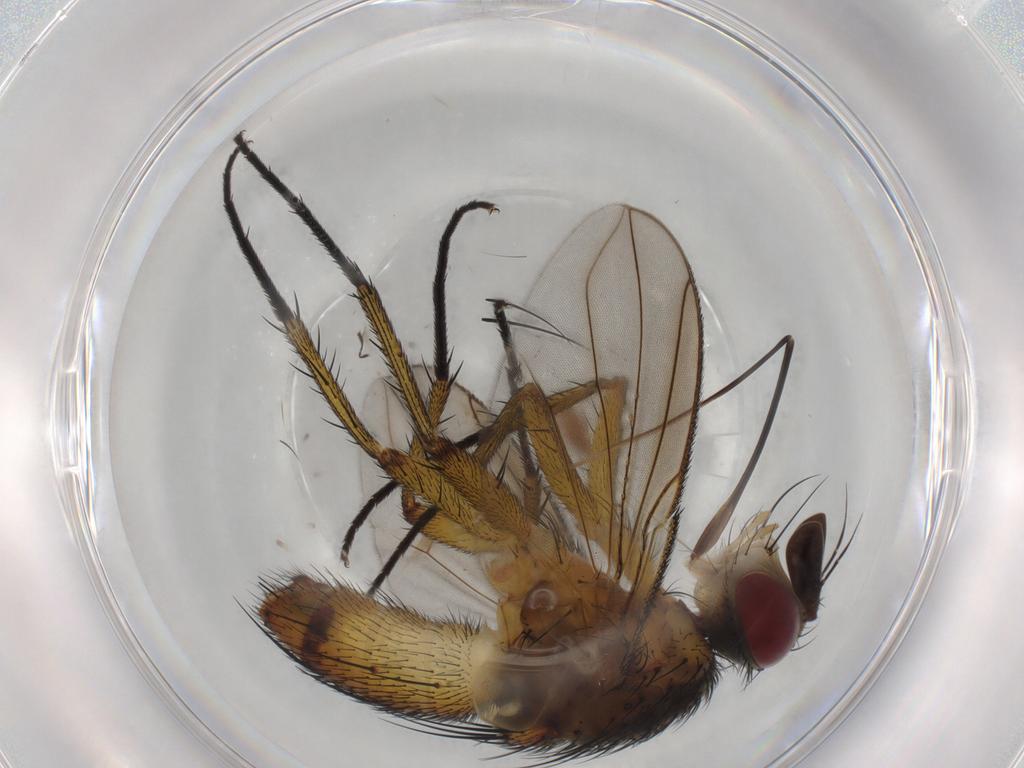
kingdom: Animalia
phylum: Arthropoda
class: Insecta
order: Diptera
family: Tachinidae
